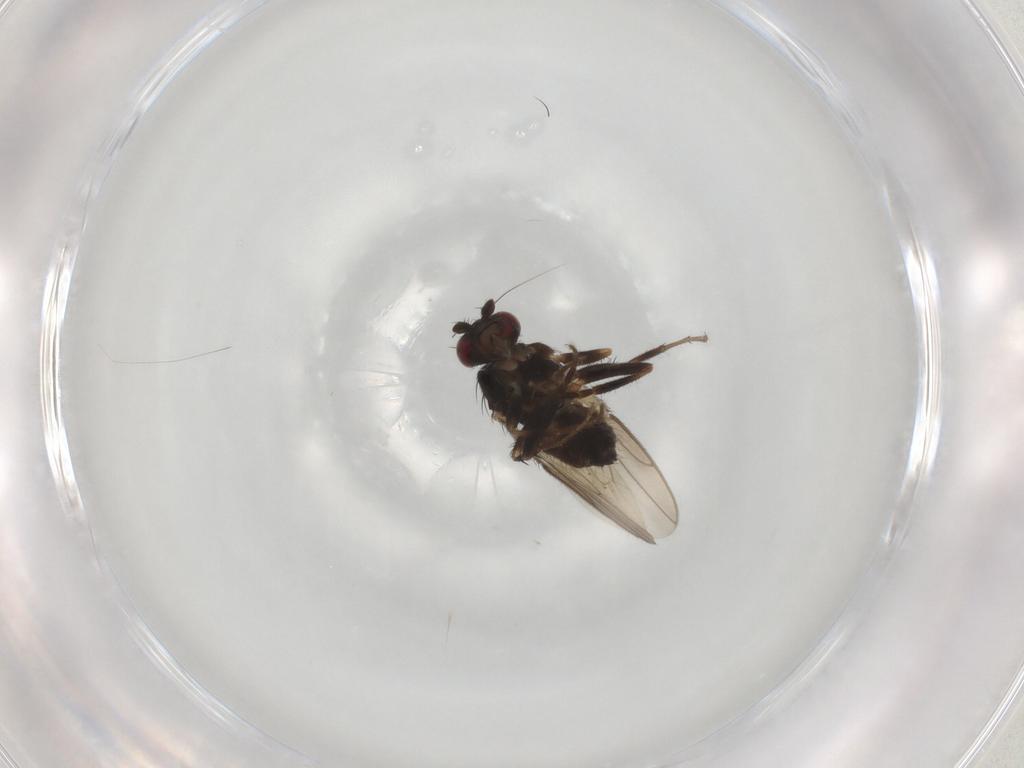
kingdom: Animalia
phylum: Arthropoda
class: Insecta
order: Diptera
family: Sphaeroceridae
